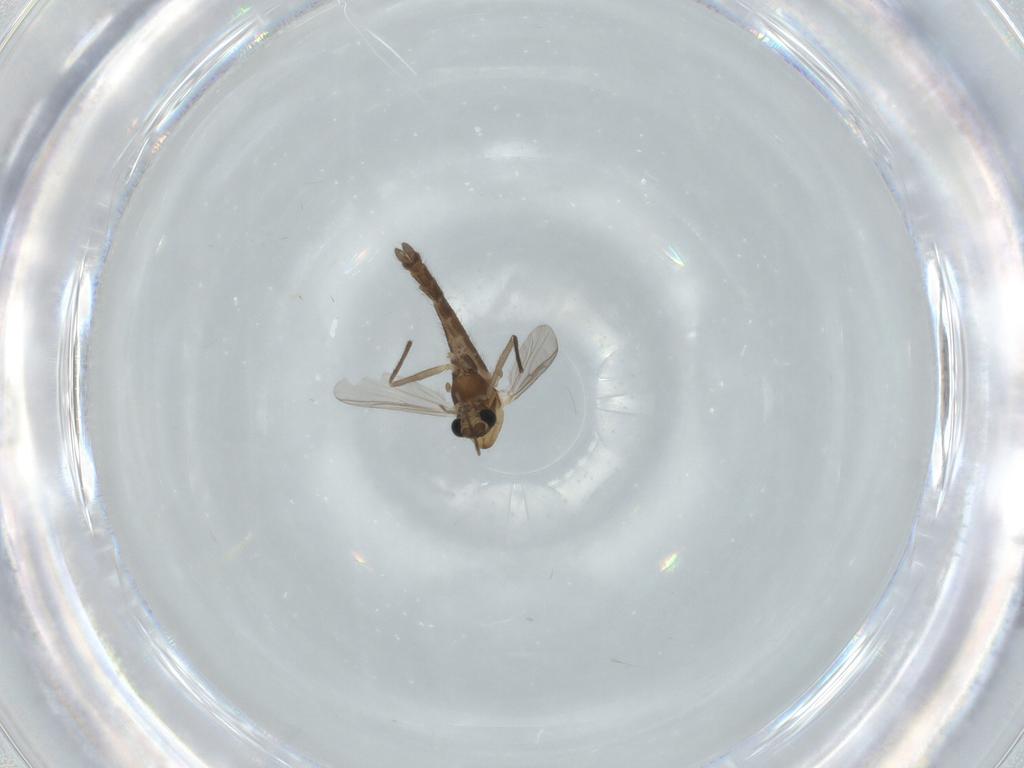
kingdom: Animalia
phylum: Arthropoda
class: Insecta
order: Diptera
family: Chironomidae
